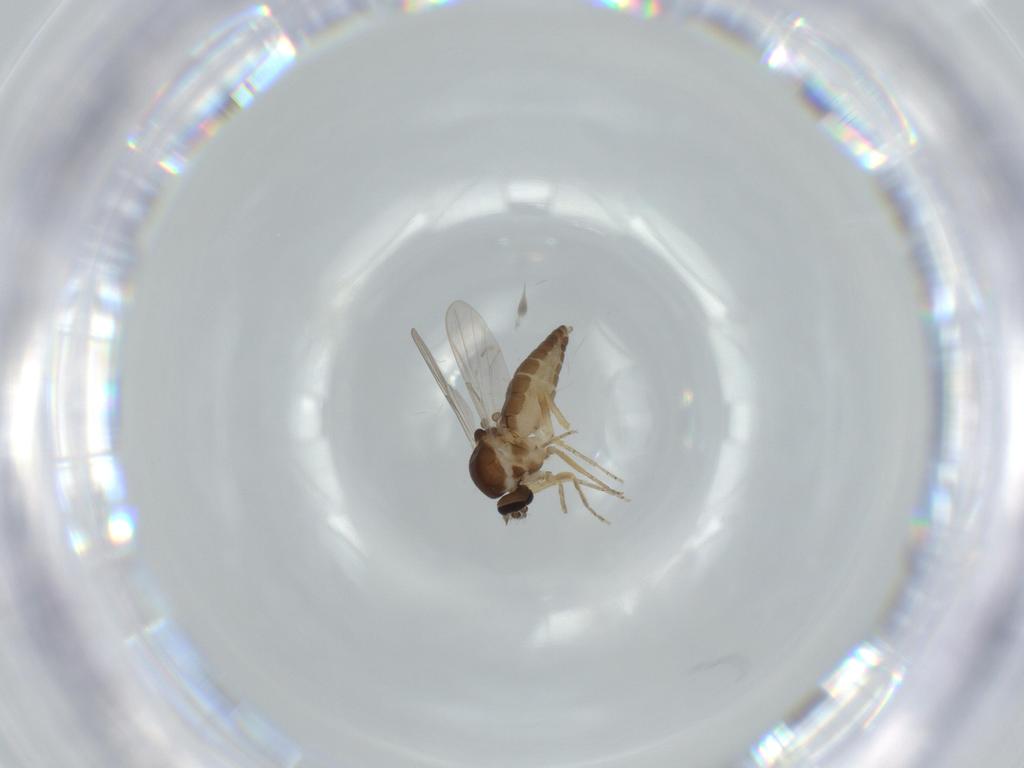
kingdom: Animalia
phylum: Arthropoda
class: Insecta
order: Diptera
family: Ceratopogonidae
